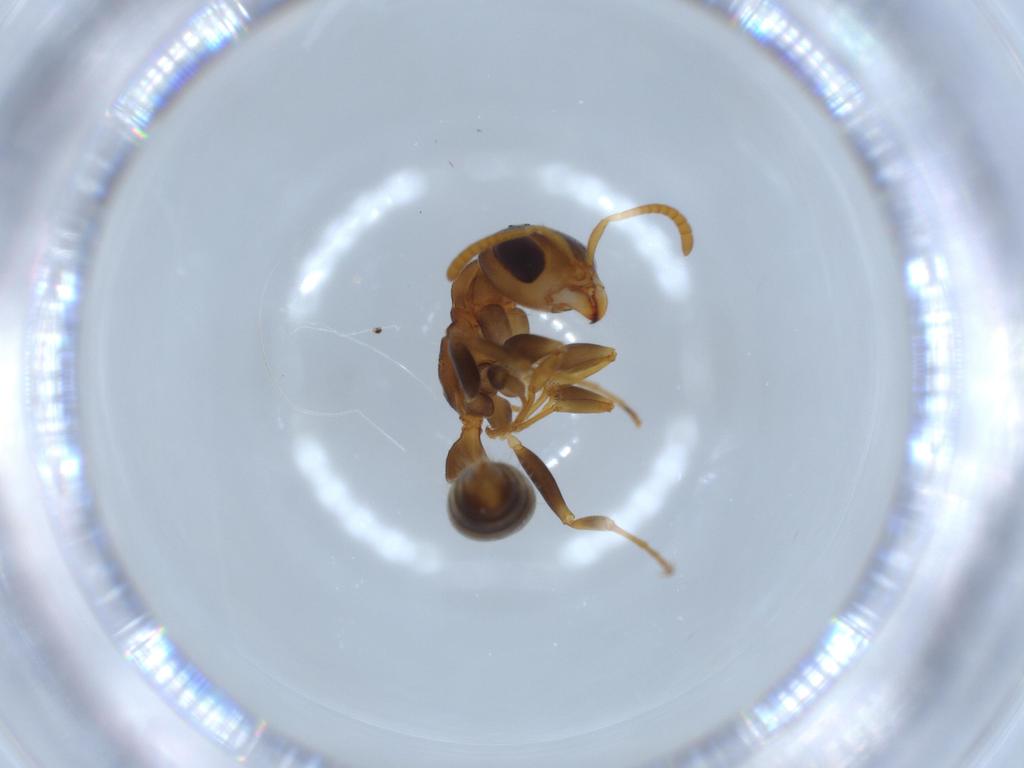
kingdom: Animalia
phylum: Arthropoda
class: Insecta
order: Hymenoptera
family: Formicidae
